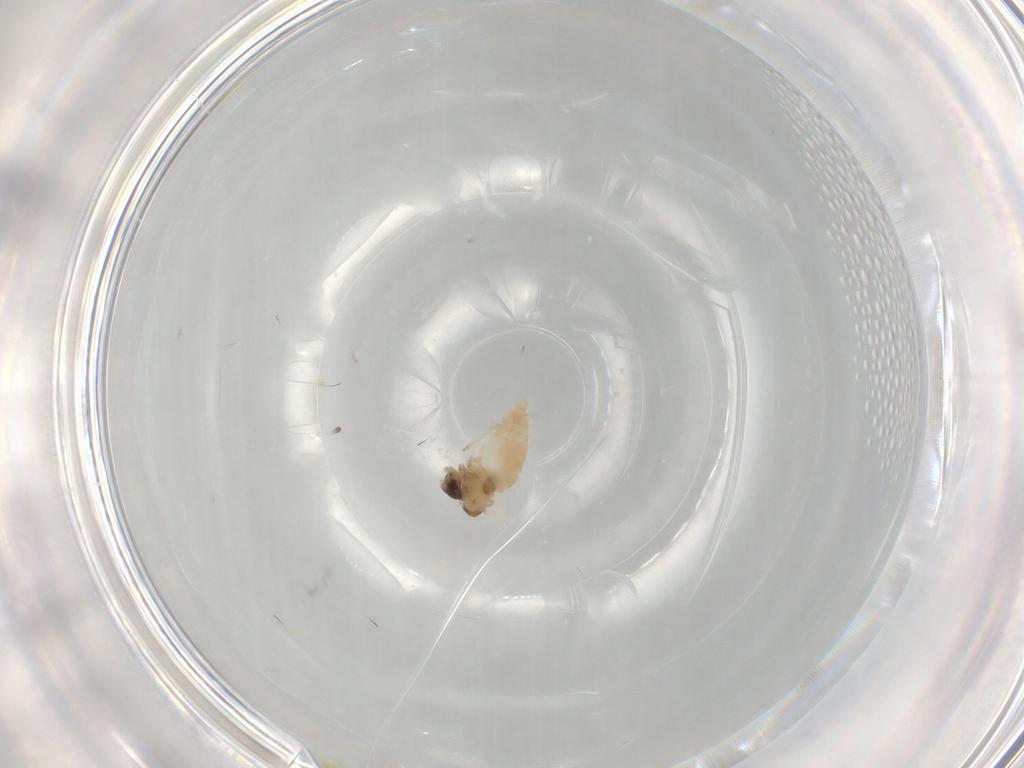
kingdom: Animalia
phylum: Arthropoda
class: Insecta
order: Diptera
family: Cecidomyiidae
